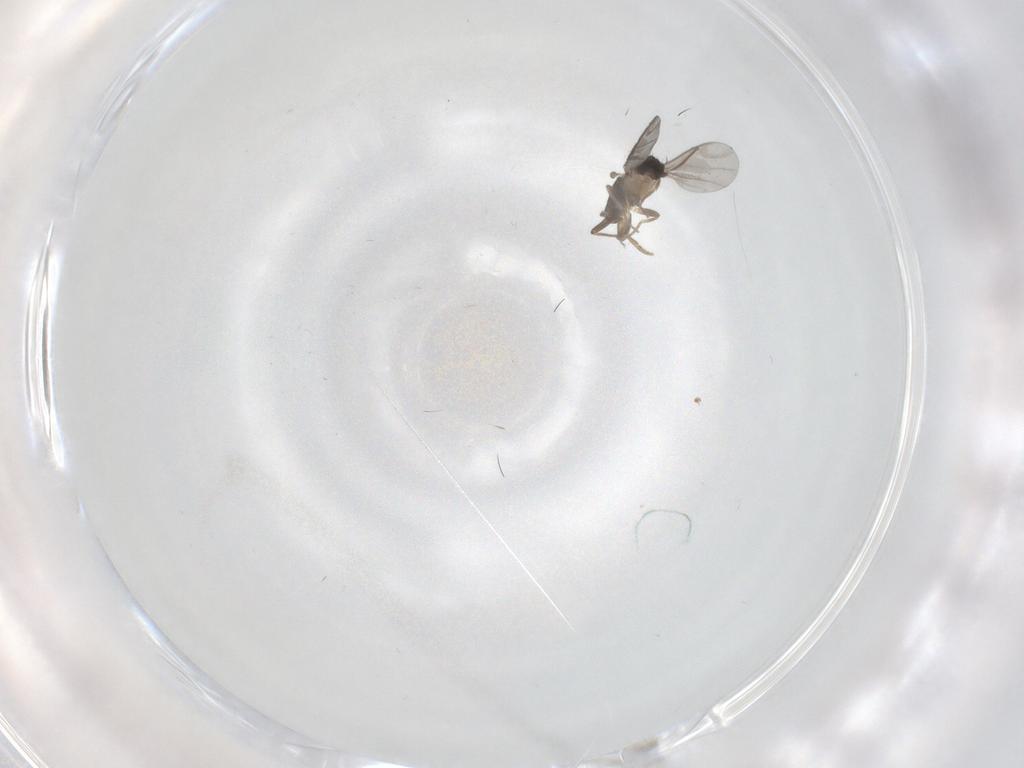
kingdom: Animalia
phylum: Arthropoda
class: Insecta
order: Diptera
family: Phoridae
